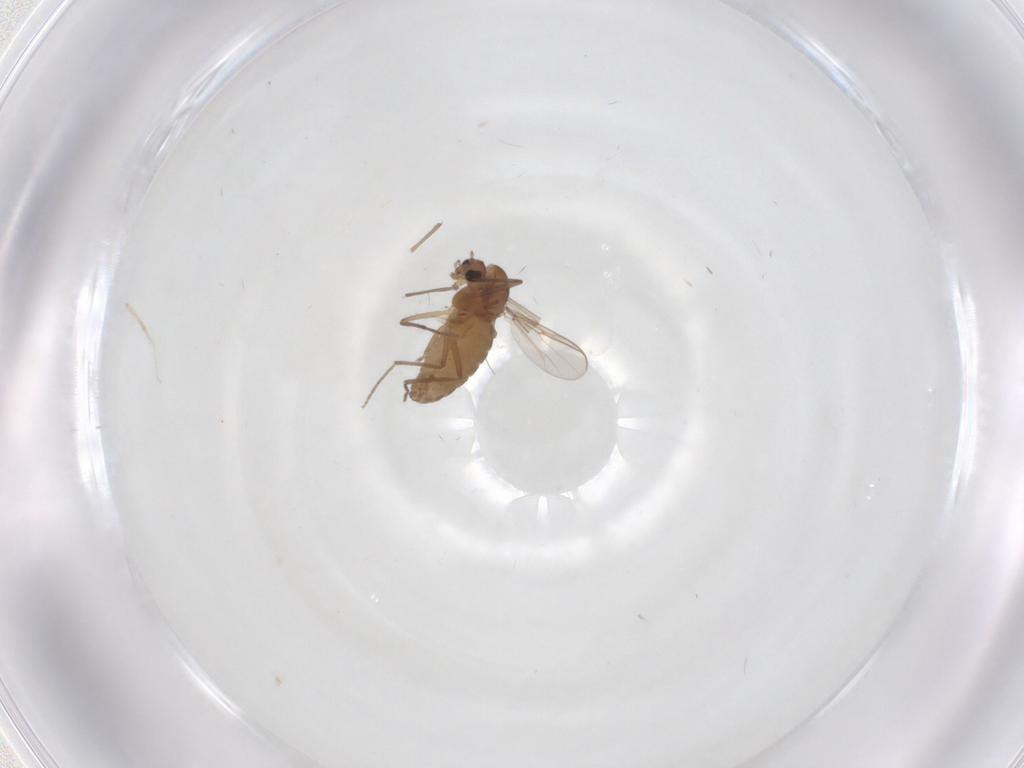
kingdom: Animalia
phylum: Arthropoda
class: Insecta
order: Diptera
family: Chironomidae
